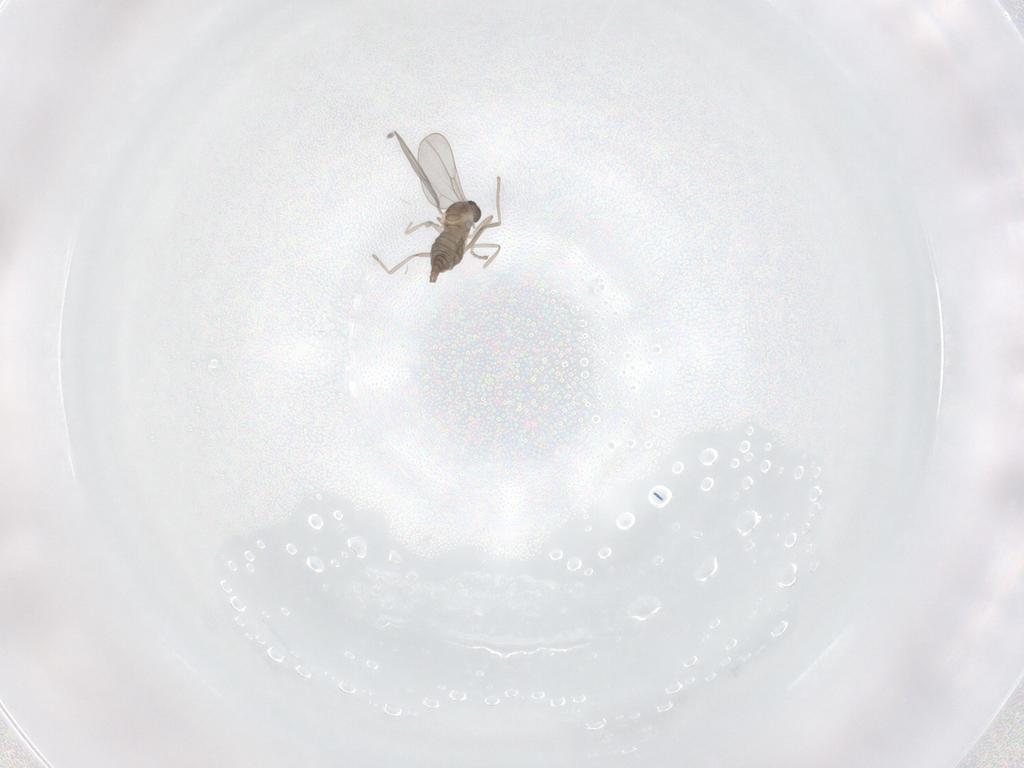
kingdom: Animalia
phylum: Arthropoda
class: Insecta
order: Diptera
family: Cecidomyiidae
